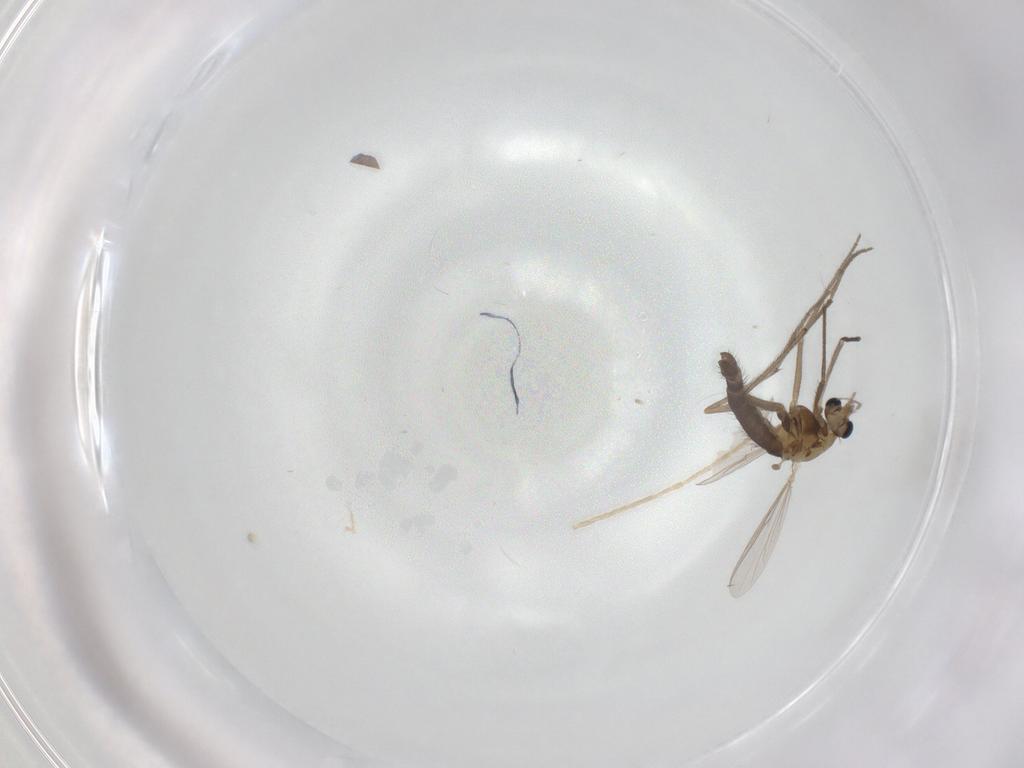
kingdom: Animalia
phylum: Arthropoda
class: Insecta
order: Diptera
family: Chironomidae
